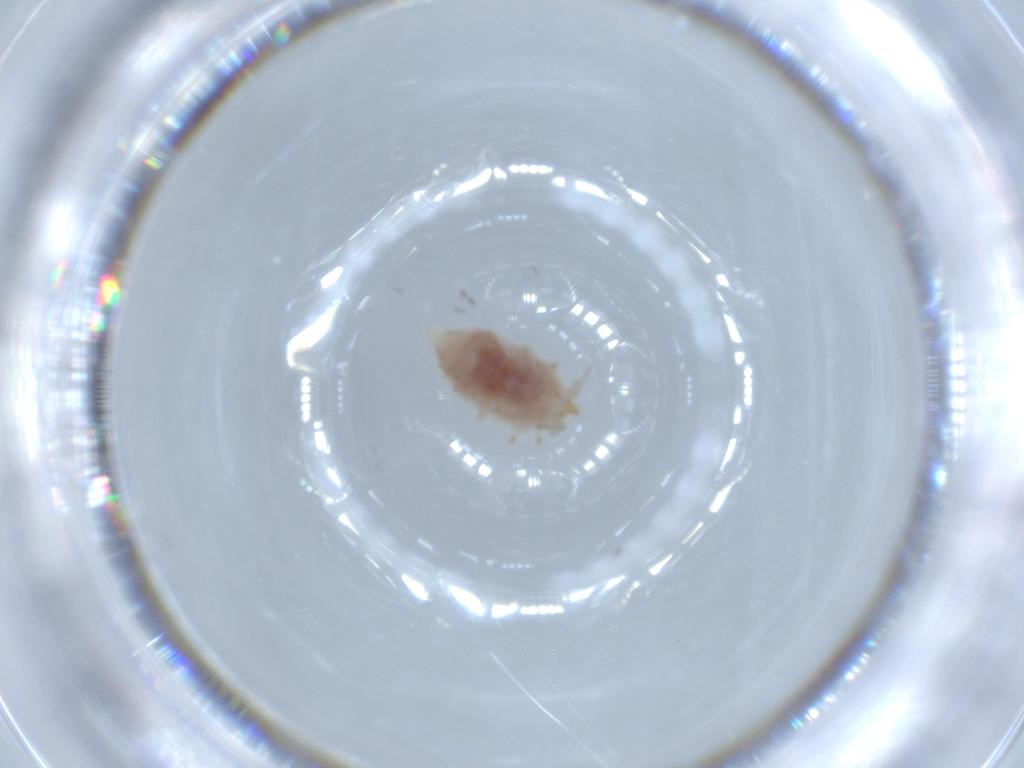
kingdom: Animalia
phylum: Arthropoda
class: Insecta
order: Neuroptera
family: Coniopterygidae
